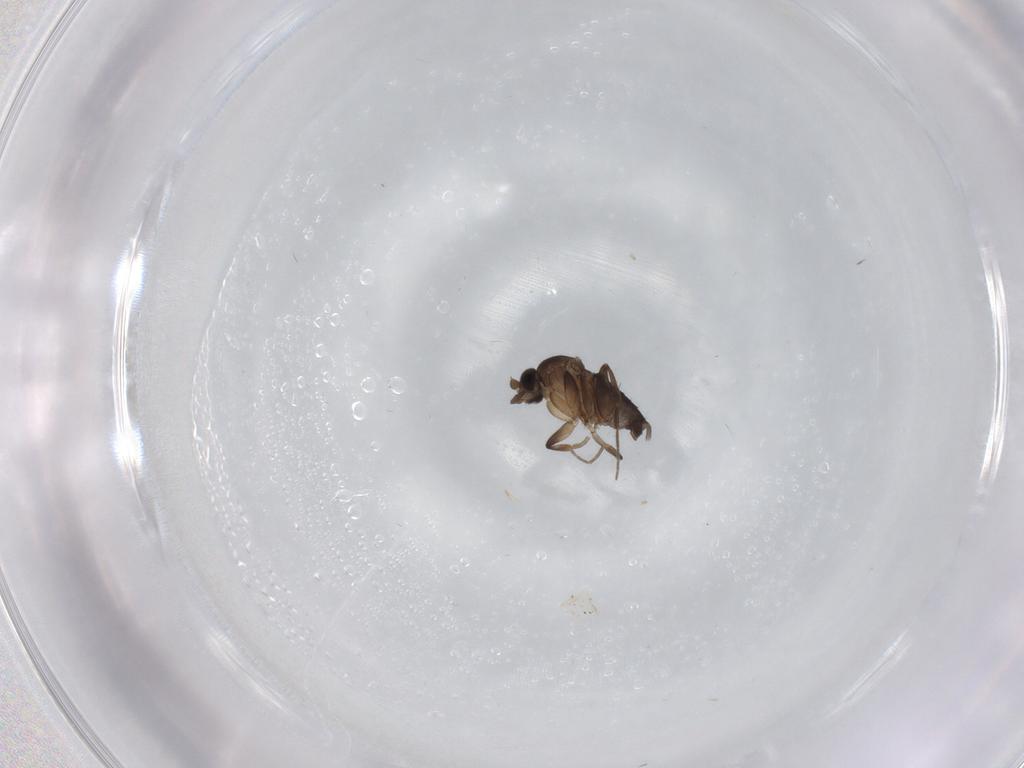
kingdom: Animalia
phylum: Arthropoda
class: Insecta
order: Diptera
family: Phoridae
